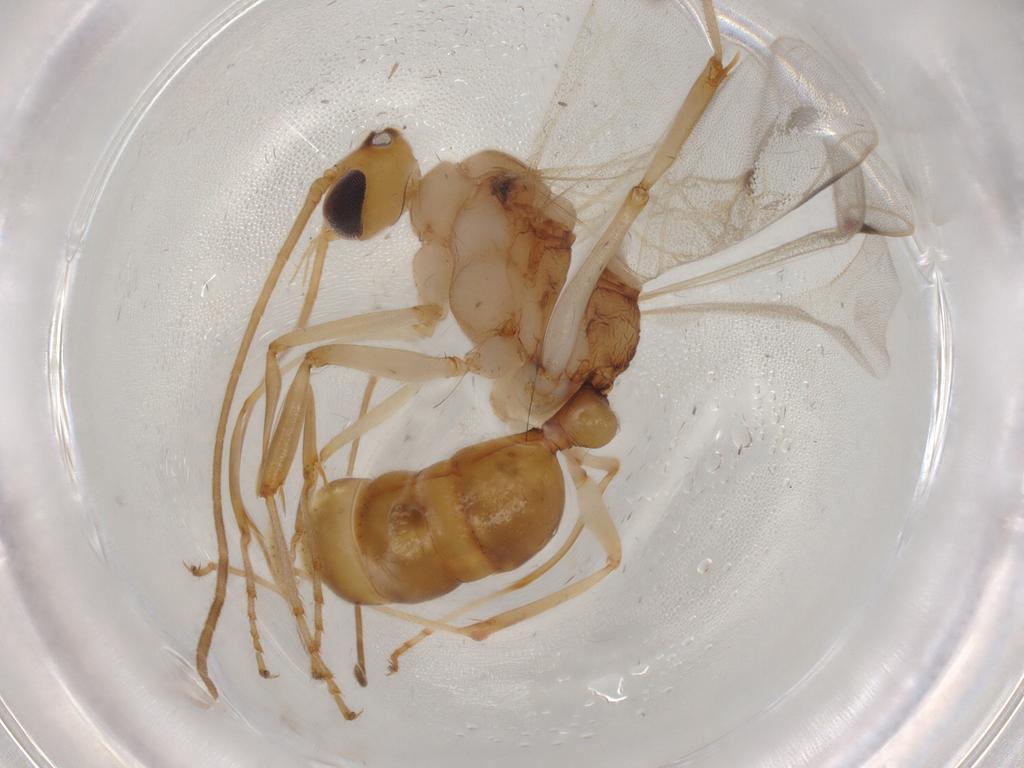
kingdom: Animalia
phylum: Arthropoda
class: Insecta
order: Hymenoptera
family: Formicidae
